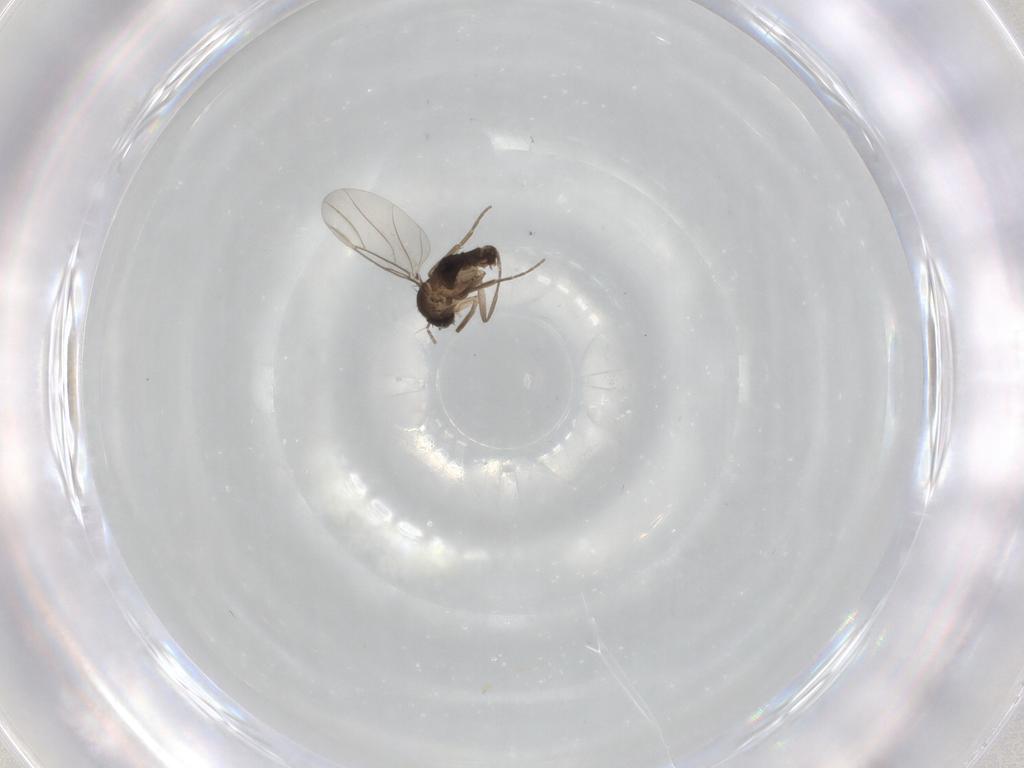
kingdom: Animalia
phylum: Arthropoda
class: Insecta
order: Diptera
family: Phoridae
